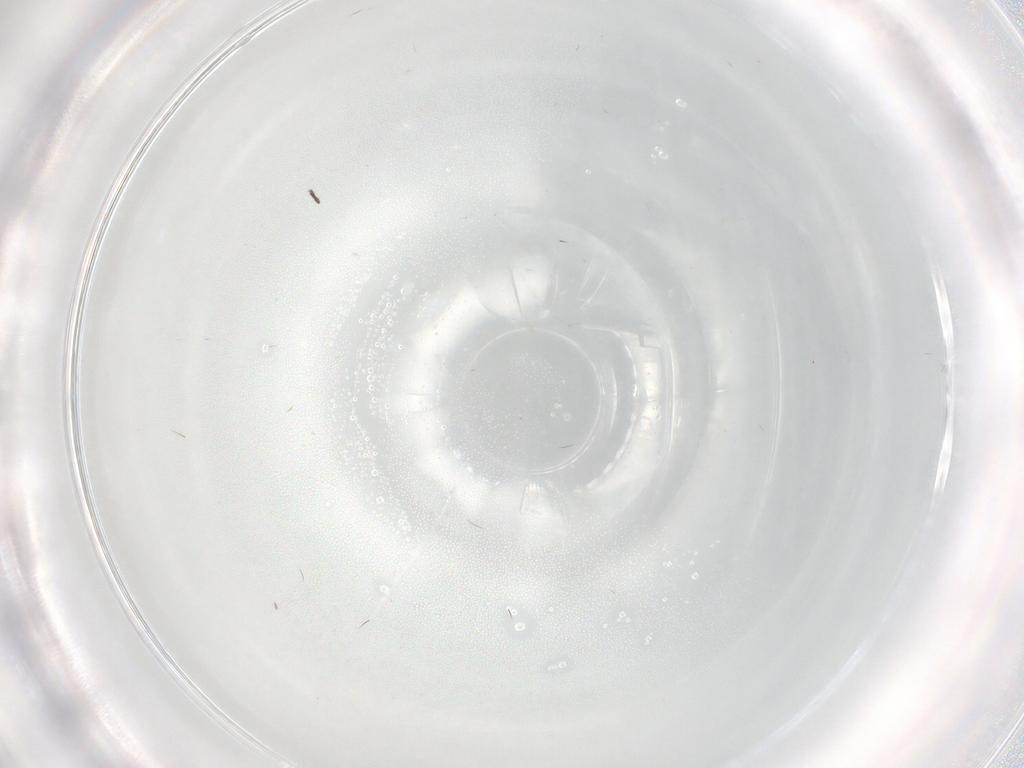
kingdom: Animalia
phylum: Arthropoda
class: Insecta
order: Diptera
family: Sciaridae
